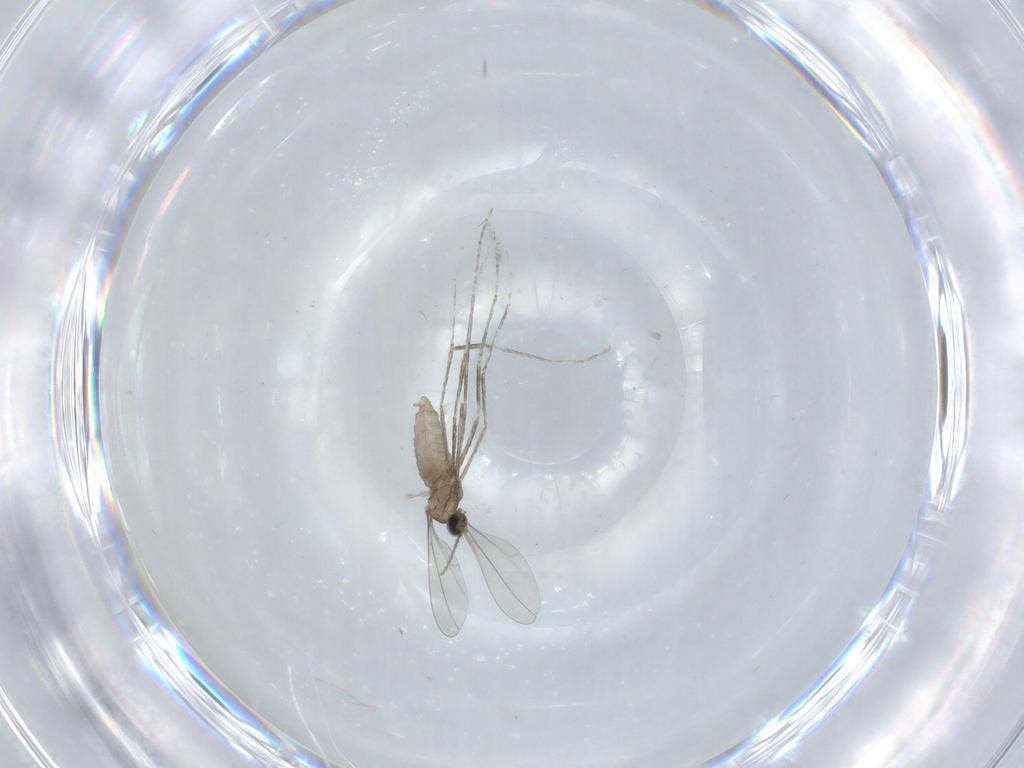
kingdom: Animalia
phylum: Arthropoda
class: Insecta
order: Diptera
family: Cecidomyiidae
